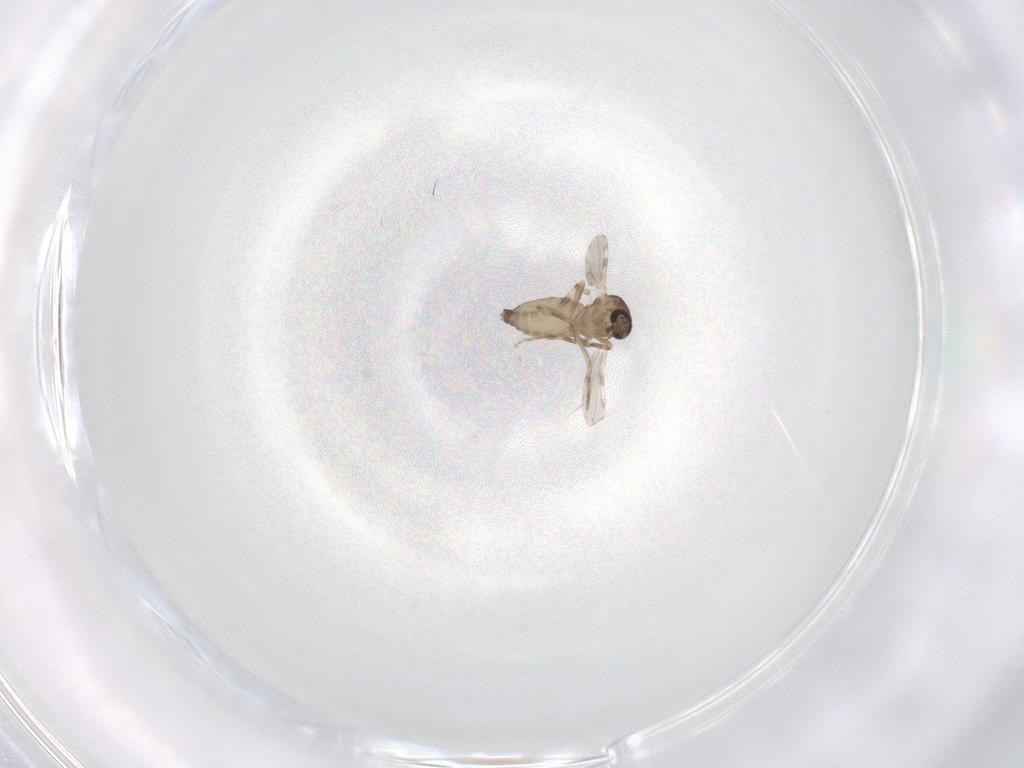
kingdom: Animalia
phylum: Arthropoda
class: Insecta
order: Diptera
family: Ceratopogonidae
